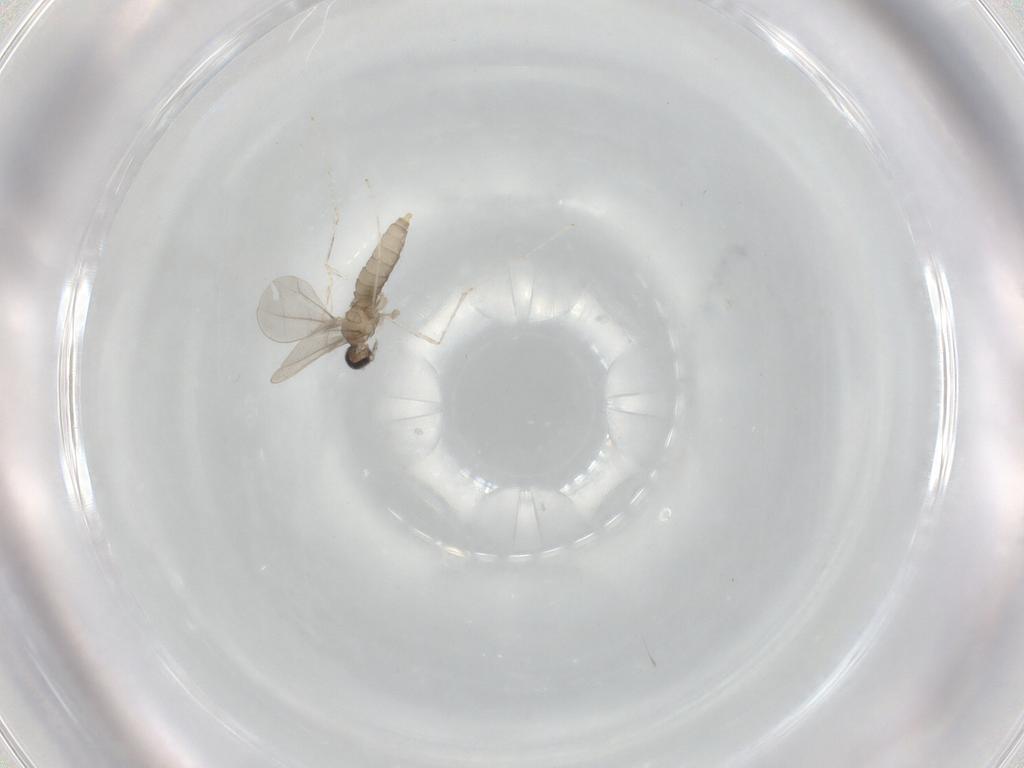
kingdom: Animalia
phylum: Arthropoda
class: Insecta
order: Diptera
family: Cecidomyiidae
